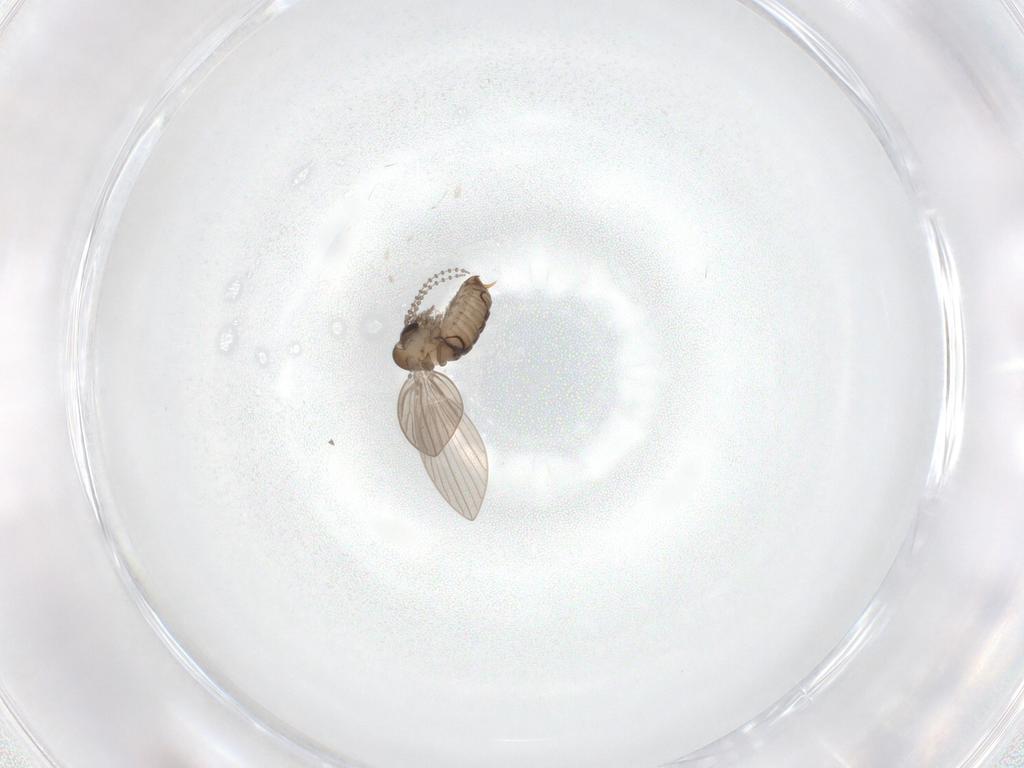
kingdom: Animalia
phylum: Arthropoda
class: Insecta
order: Diptera
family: Psychodidae
